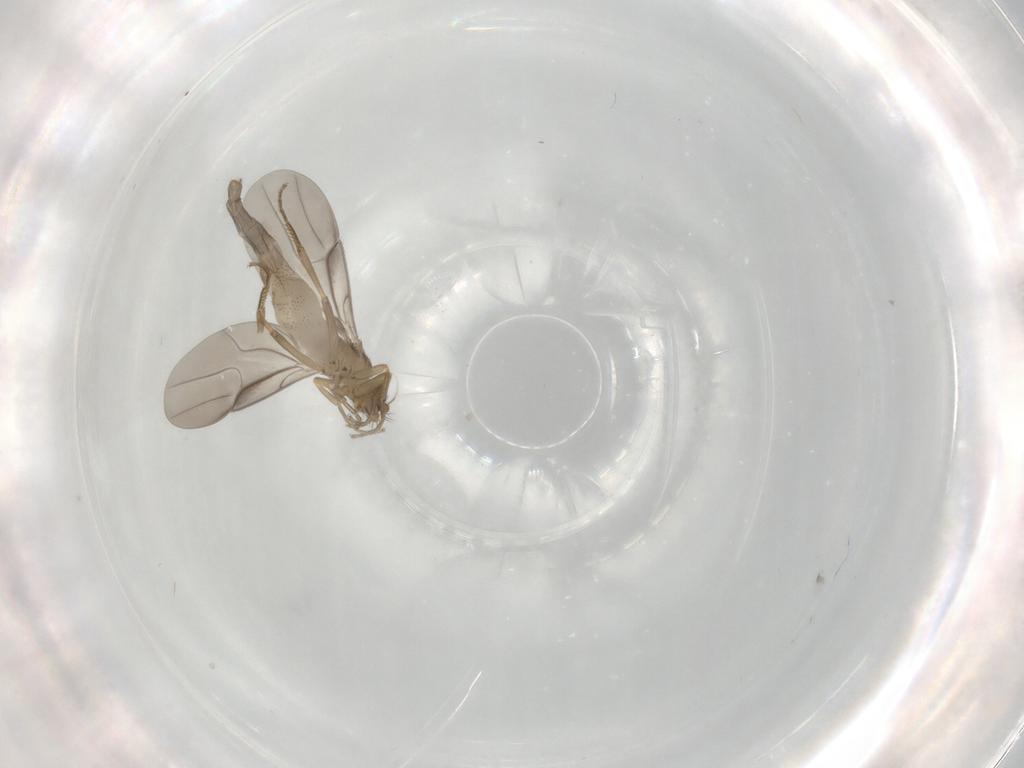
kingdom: Animalia
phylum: Arthropoda
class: Insecta
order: Diptera
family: Phoridae
